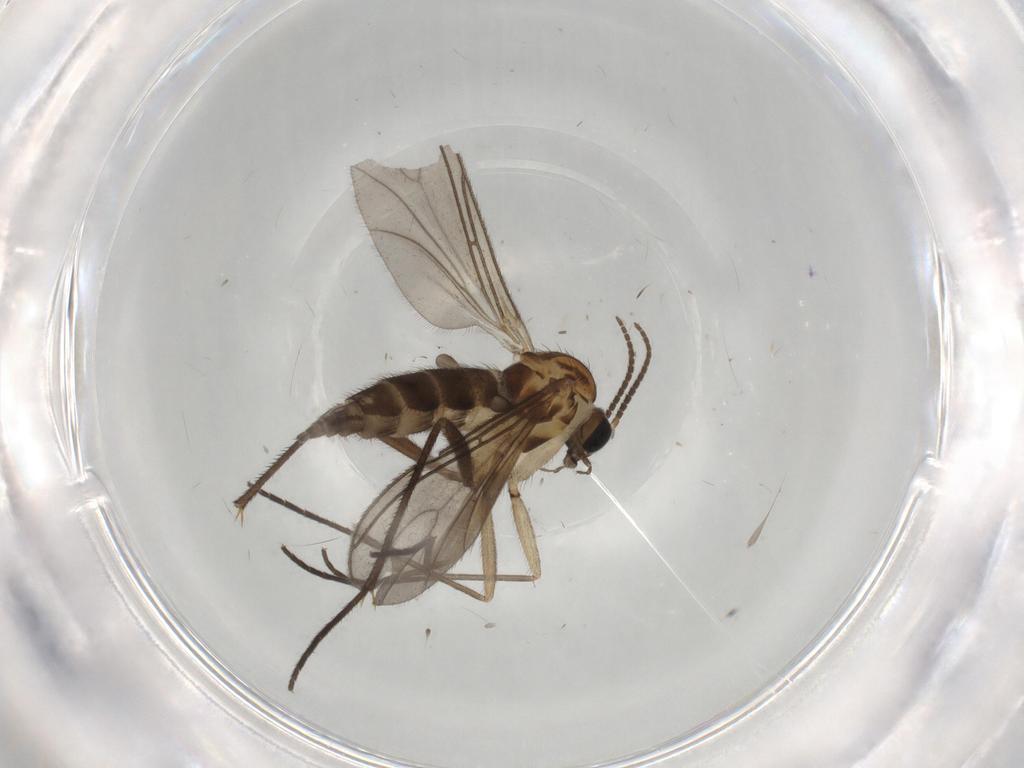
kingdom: Animalia
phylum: Arthropoda
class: Insecta
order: Diptera
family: Sciaridae
